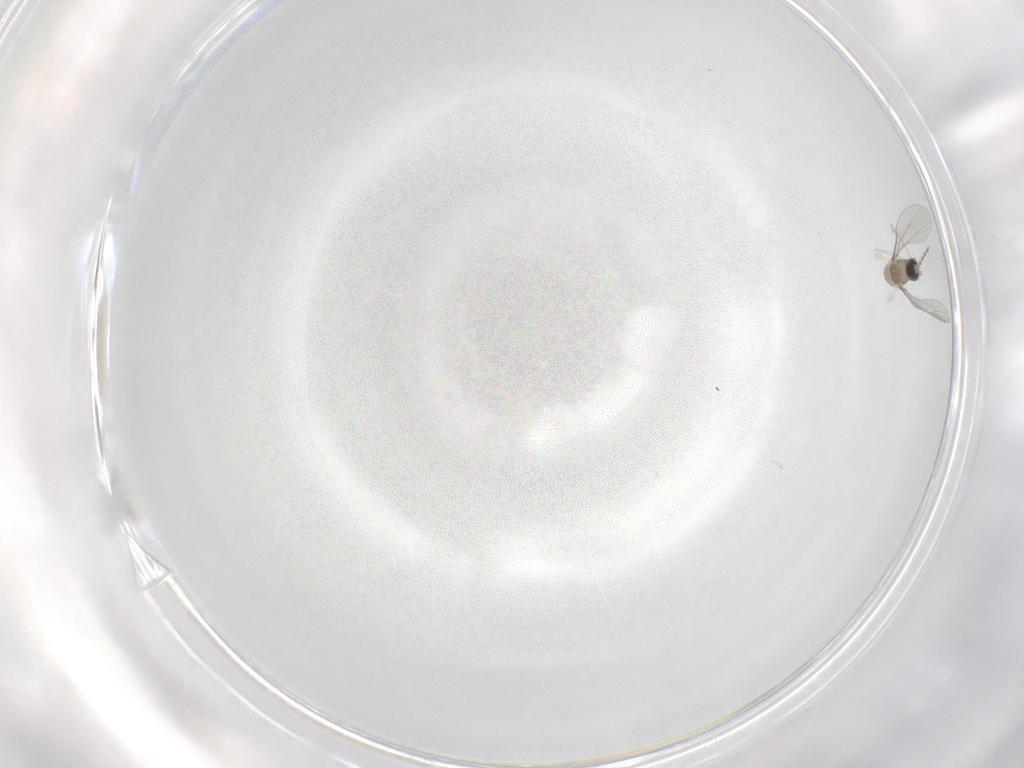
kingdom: Animalia
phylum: Arthropoda
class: Insecta
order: Diptera
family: Cecidomyiidae
